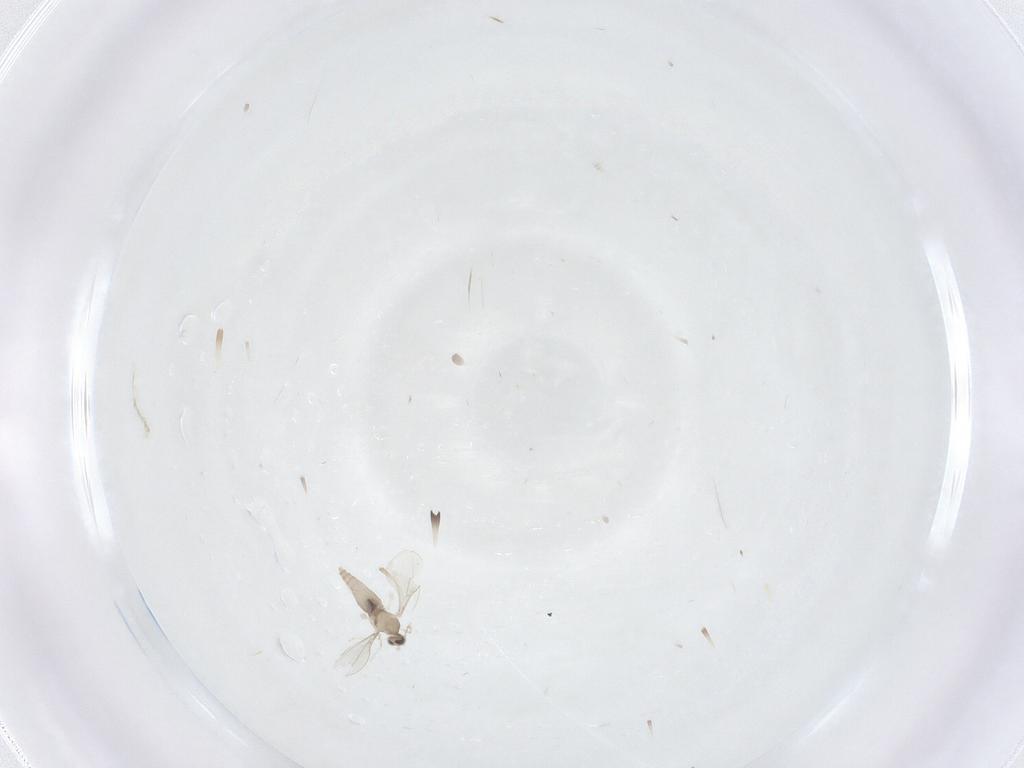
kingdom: Animalia
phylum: Arthropoda
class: Insecta
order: Diptera
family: Cecidomyiidae
